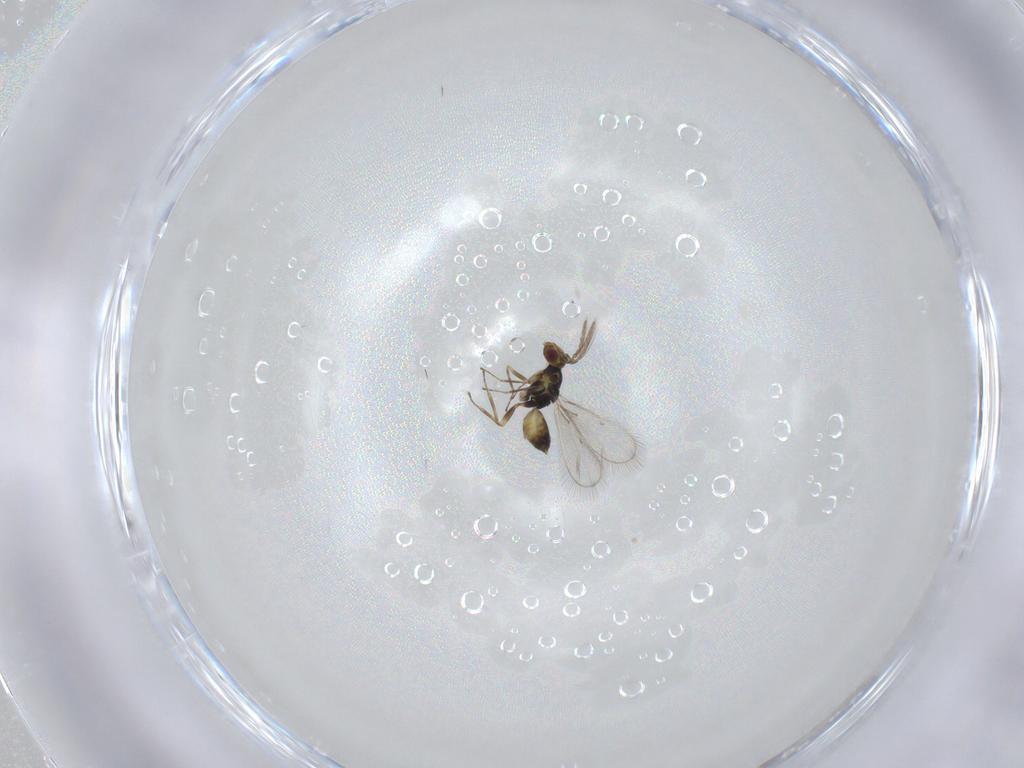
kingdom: Animalia
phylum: Arthropoda
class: Insecta
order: Hymenoptera
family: Eulophidae
